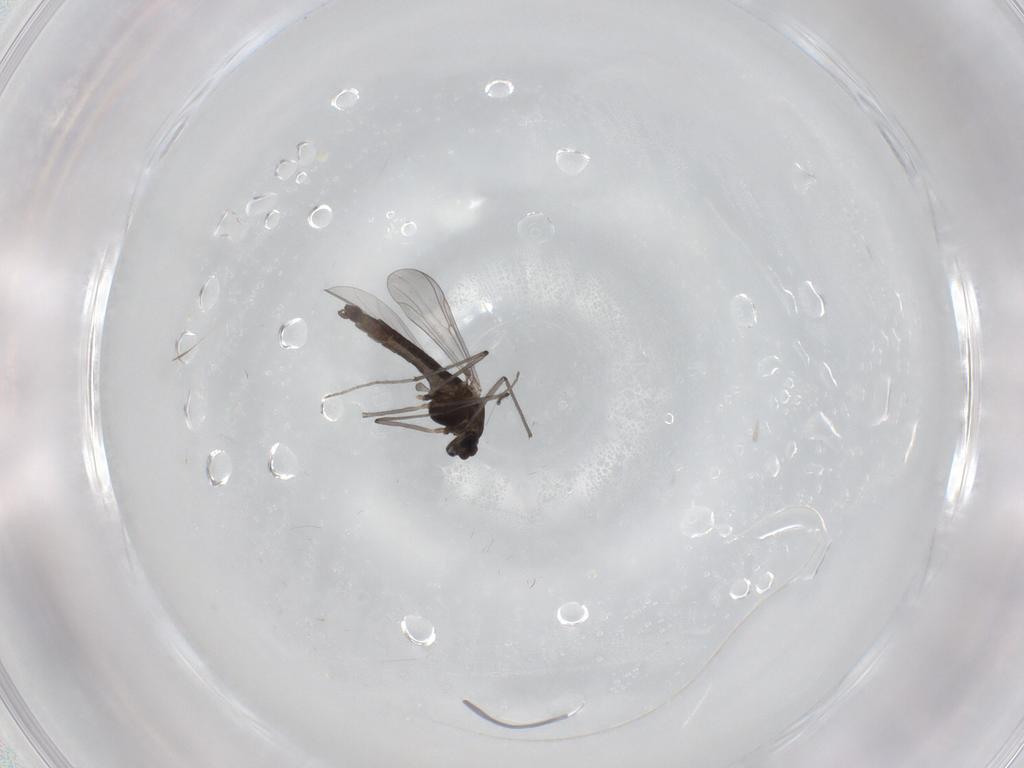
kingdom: Animalia
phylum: Arthropoda
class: Insecta
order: Diptera
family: Chironomidae
